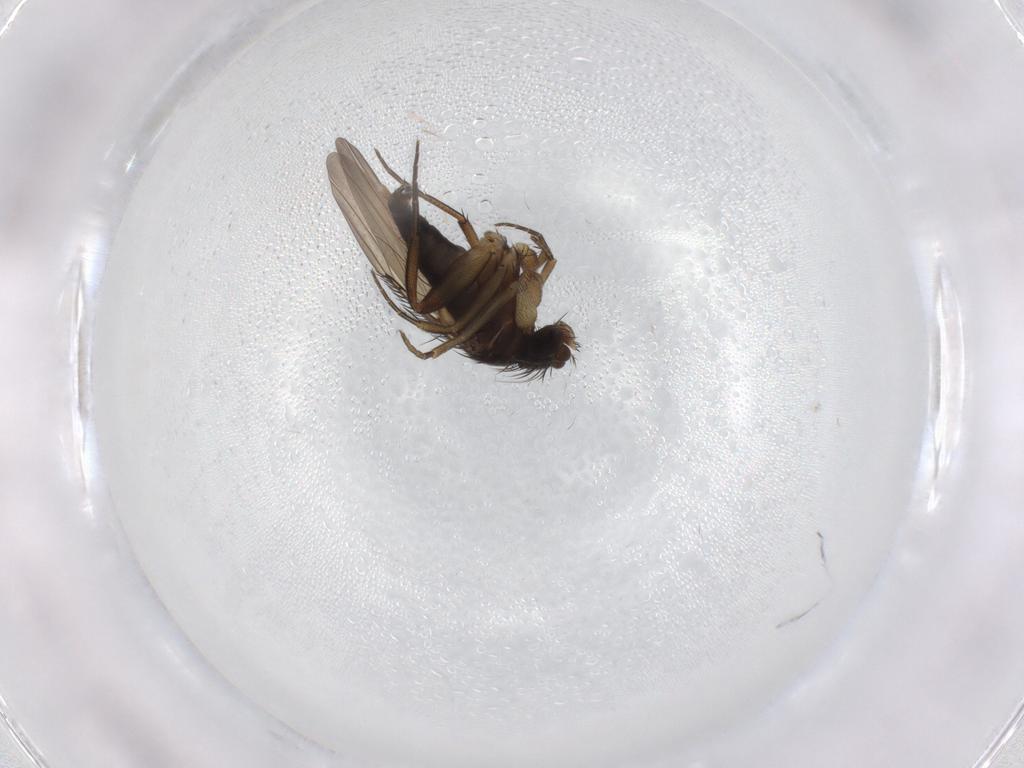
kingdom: Animalia
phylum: Arthropoda
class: Insecta
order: Diptera
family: Phoridae
